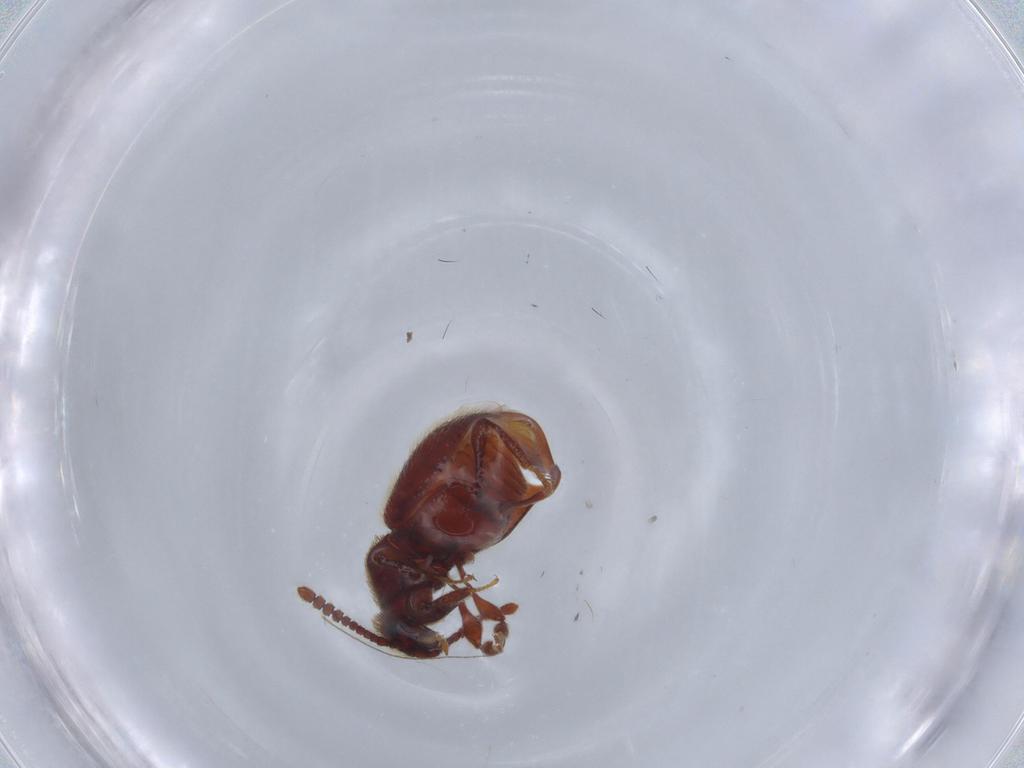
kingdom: Animalia
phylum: Arthropoda
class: Insecta
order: Coleoptera
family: Staphylinidae
